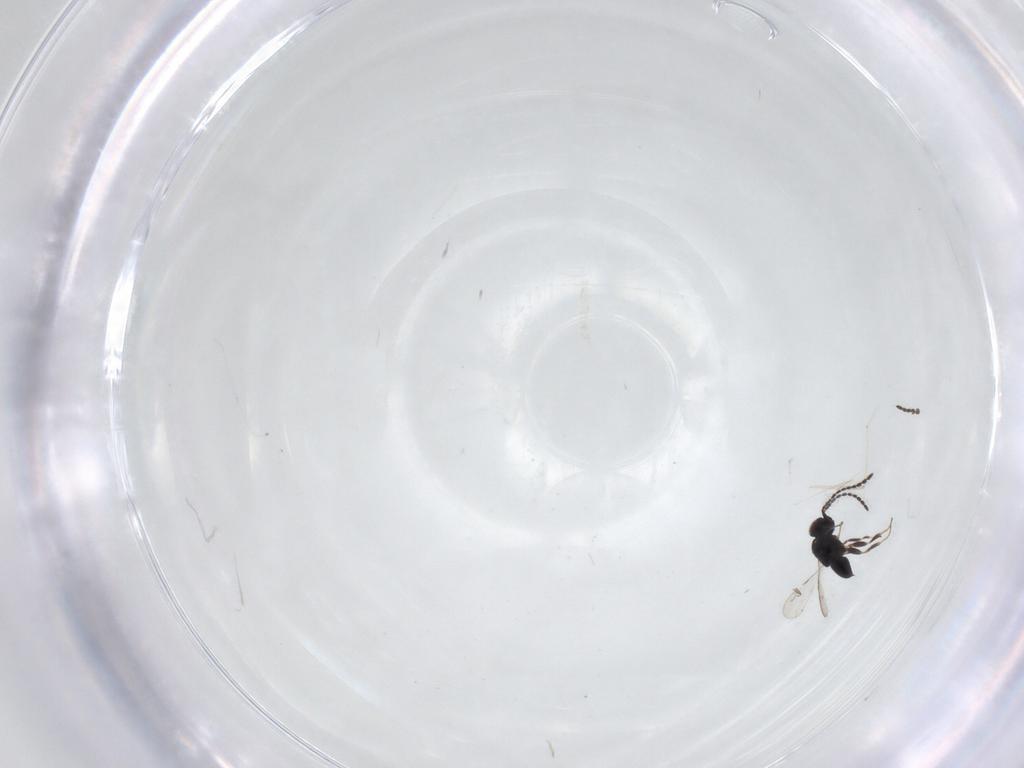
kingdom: Animalia
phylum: Arthropoda
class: Insecta
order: Hymenoptera
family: Scelionidae
